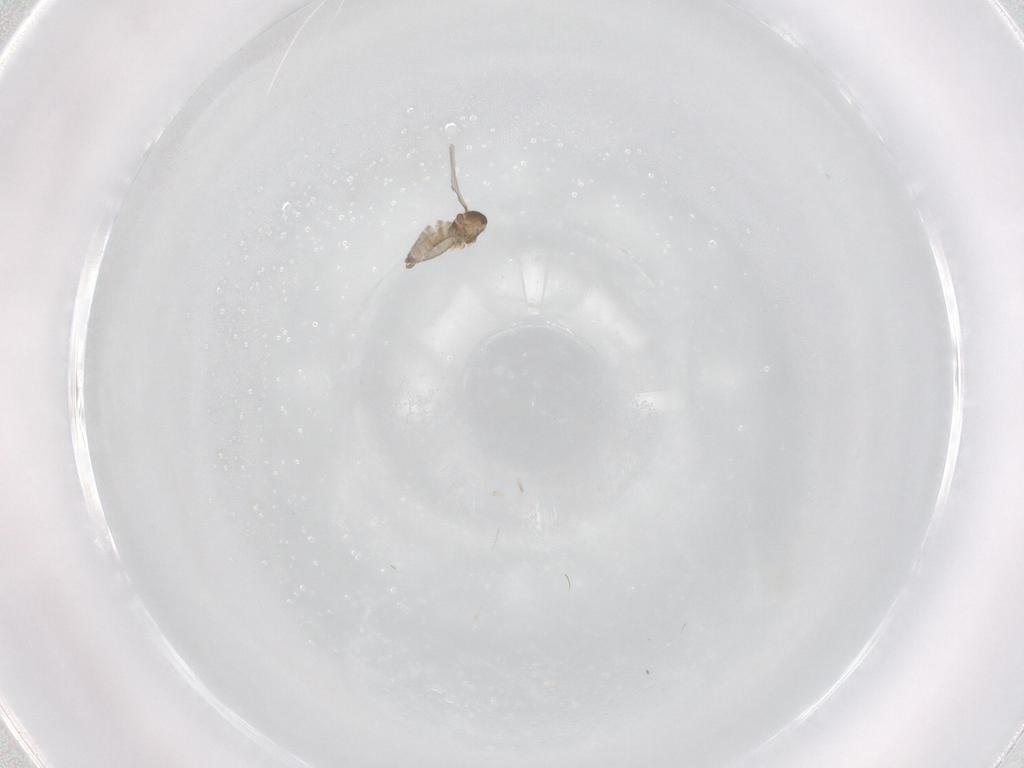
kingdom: Animalia
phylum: Arthropoda
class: Insecta
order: Diptera
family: Cecidomyiidae
